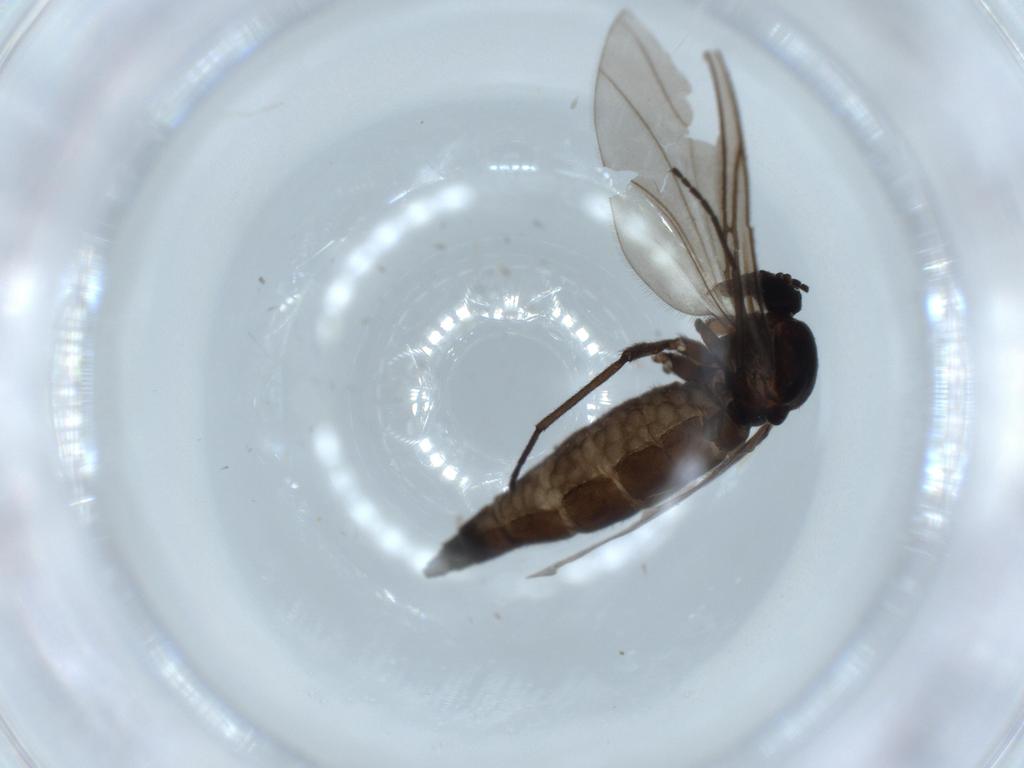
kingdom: Animalia
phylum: Arthropoda
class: Insecta
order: Diptera
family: Sciaridae
